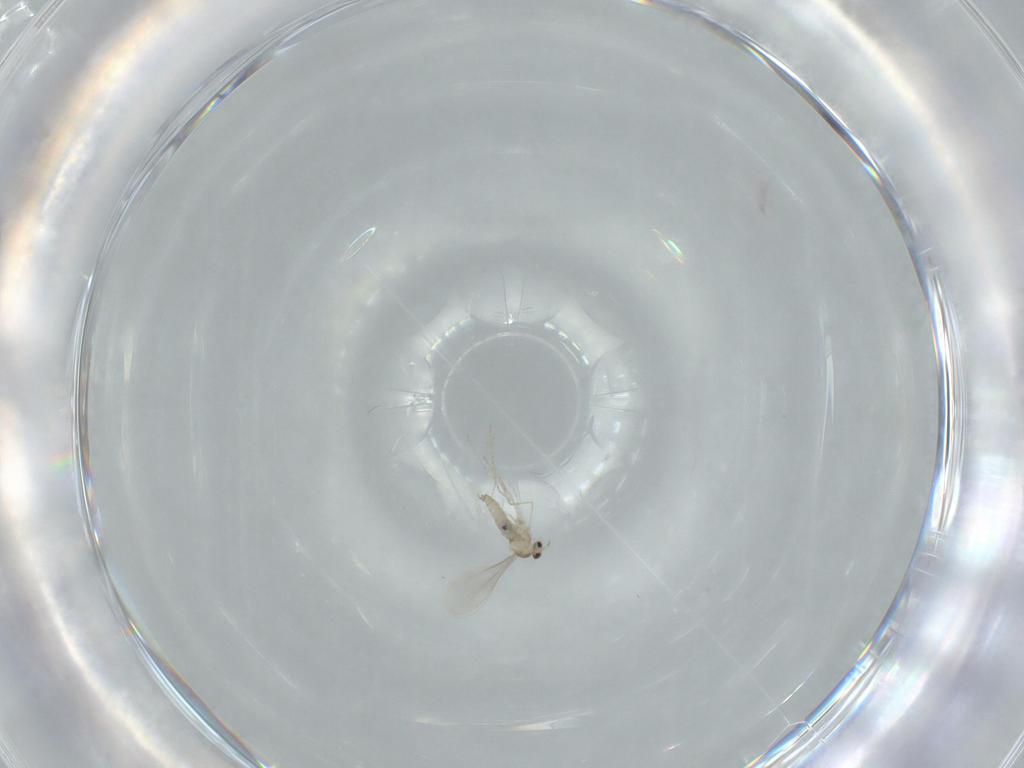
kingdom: Animalia
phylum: Arthropoda
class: Insecta
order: Diptera
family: Cecidomyiidae
